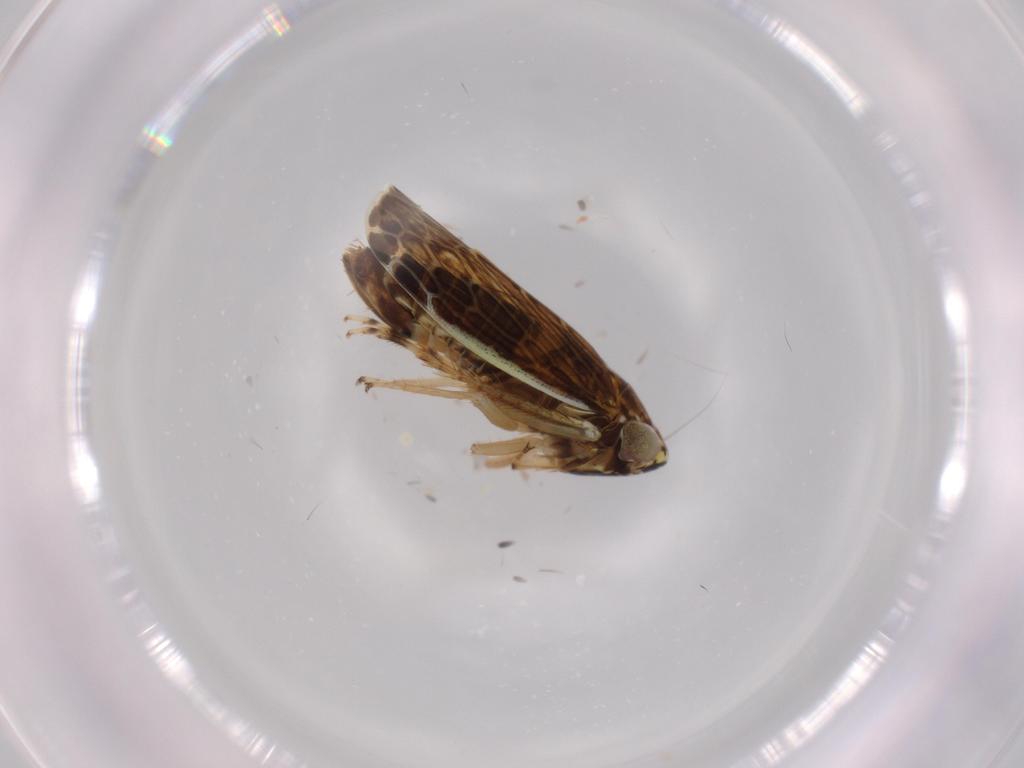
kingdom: Animalia
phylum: Arthropoda
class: Insecta
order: Hemiptera
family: Cicadellidae
